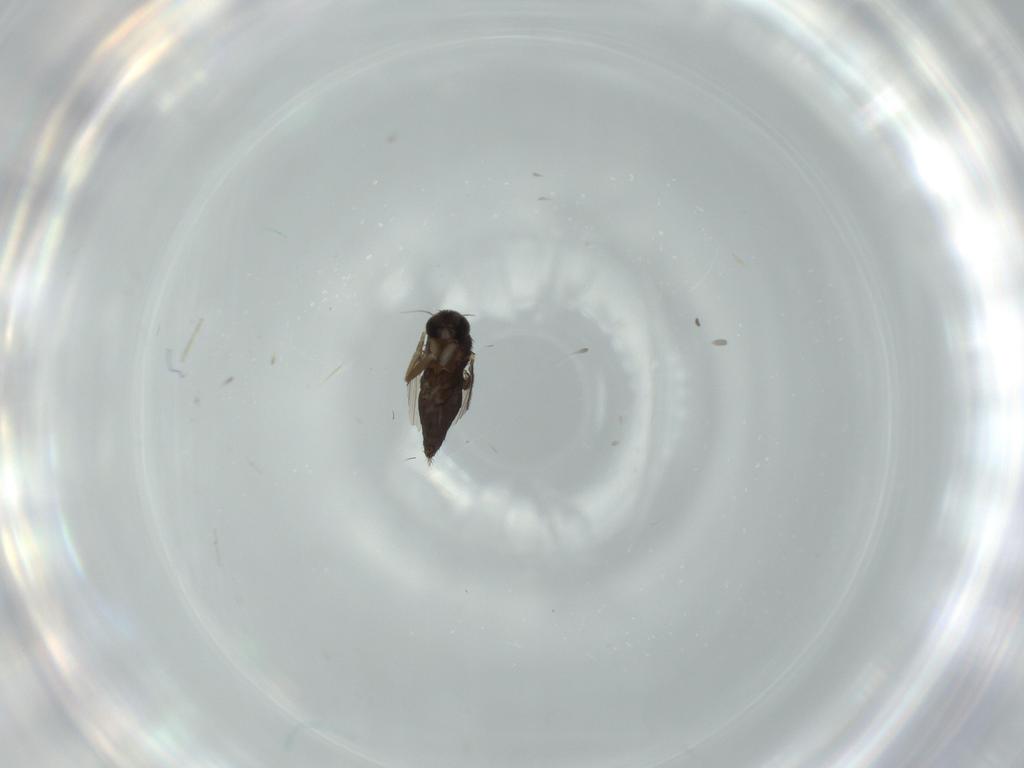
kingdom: Animalia
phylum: Arthropoda
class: Insecta
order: Diptera
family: Phoridae
